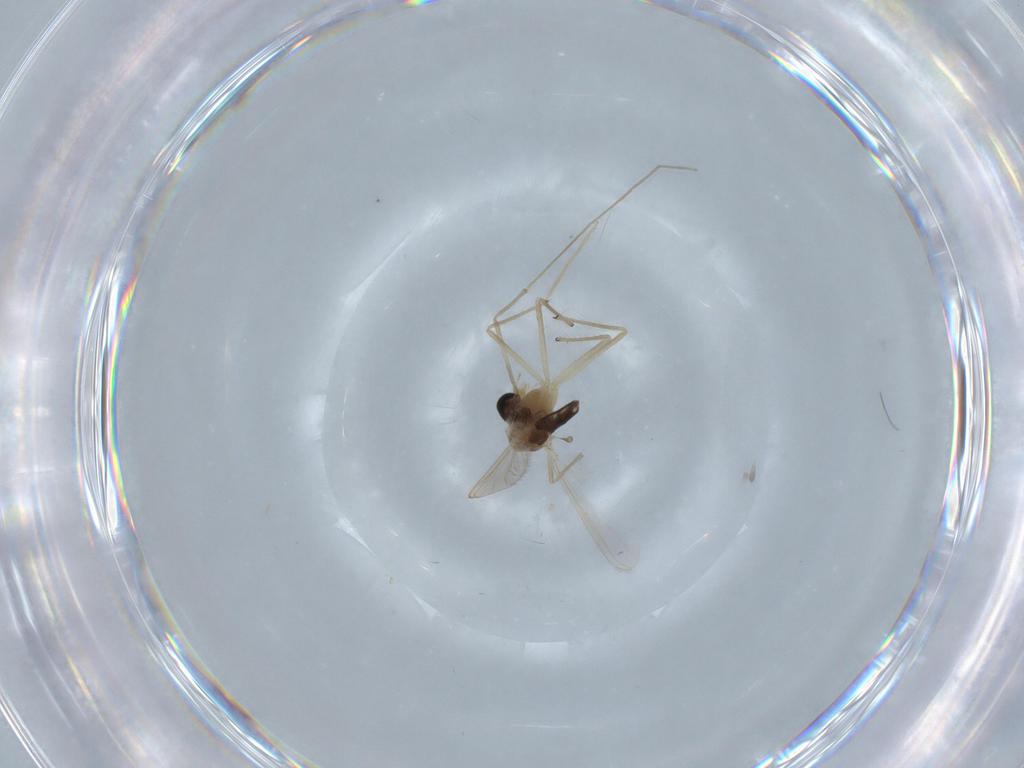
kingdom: Animalia
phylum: Arthropoda
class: Insecta
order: Diptera
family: Chironomidae
